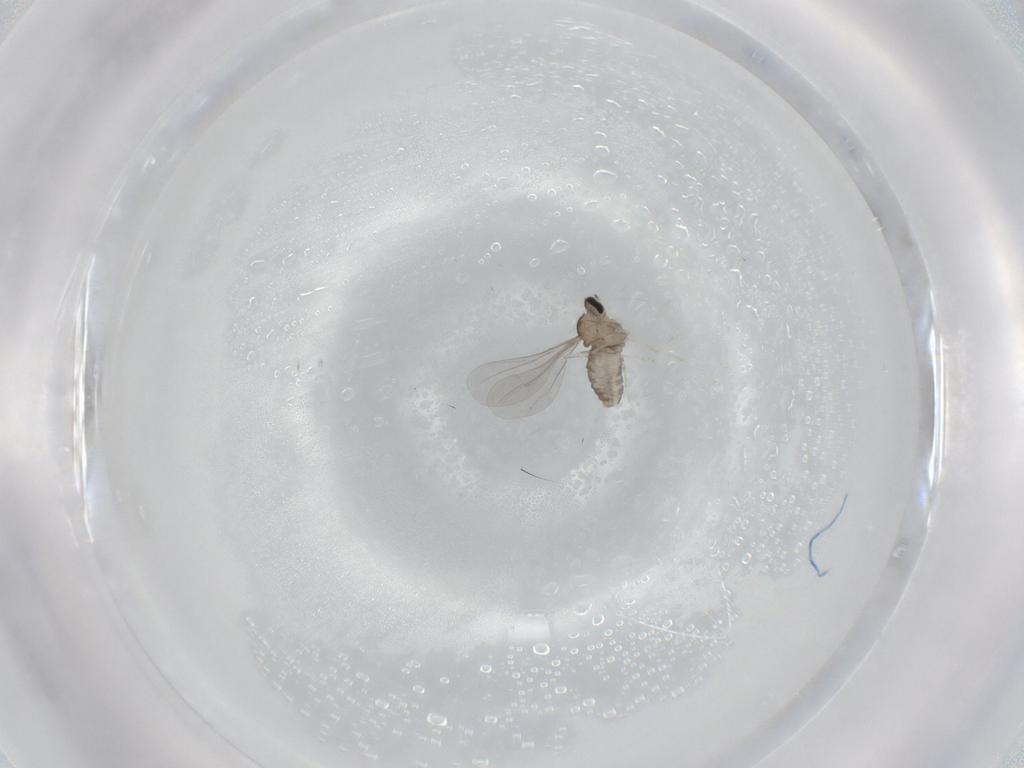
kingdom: Animalia
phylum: Arthropoda
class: Insecta
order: Diptera
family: Cecidomyiidae
